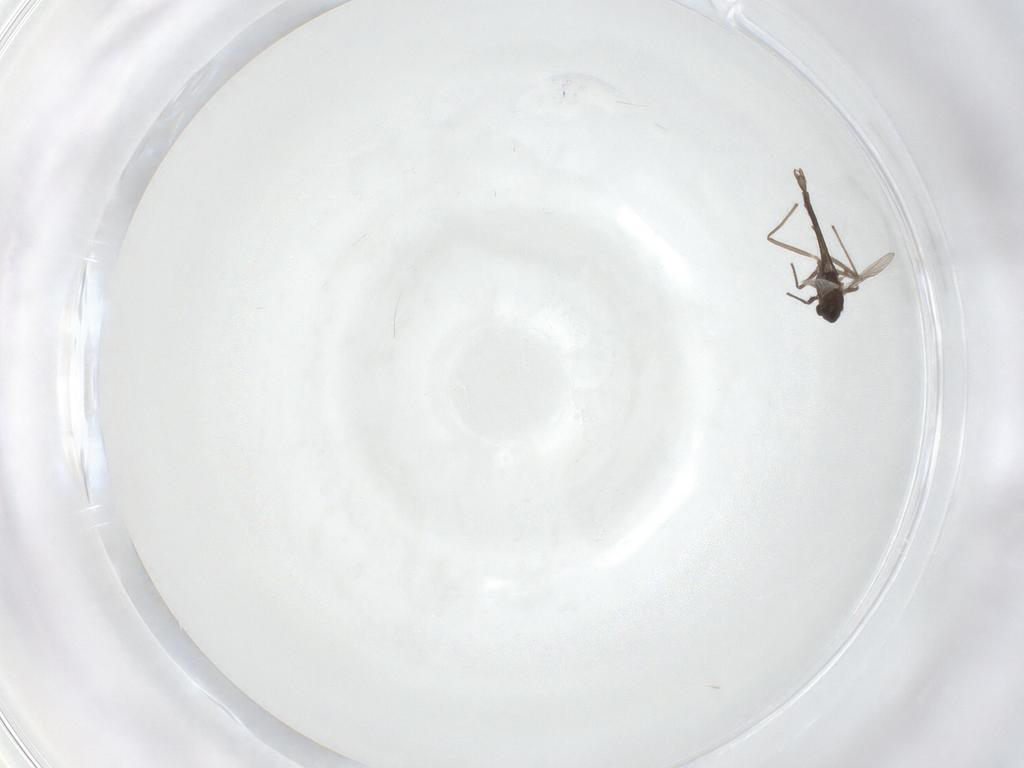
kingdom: Animalia
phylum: Arthropoda
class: Insecta
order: Diptera
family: Chironomidae
